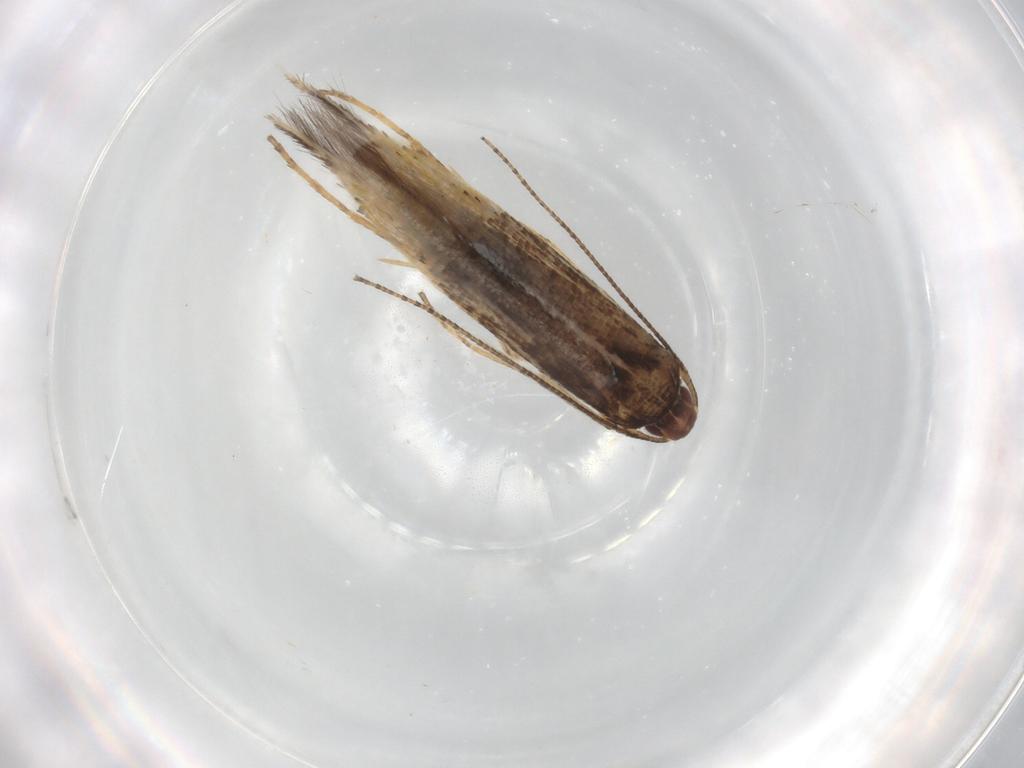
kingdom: Animalia
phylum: Arthropoda
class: Insecta
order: Lepidoptera
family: Cosmopterigidae
